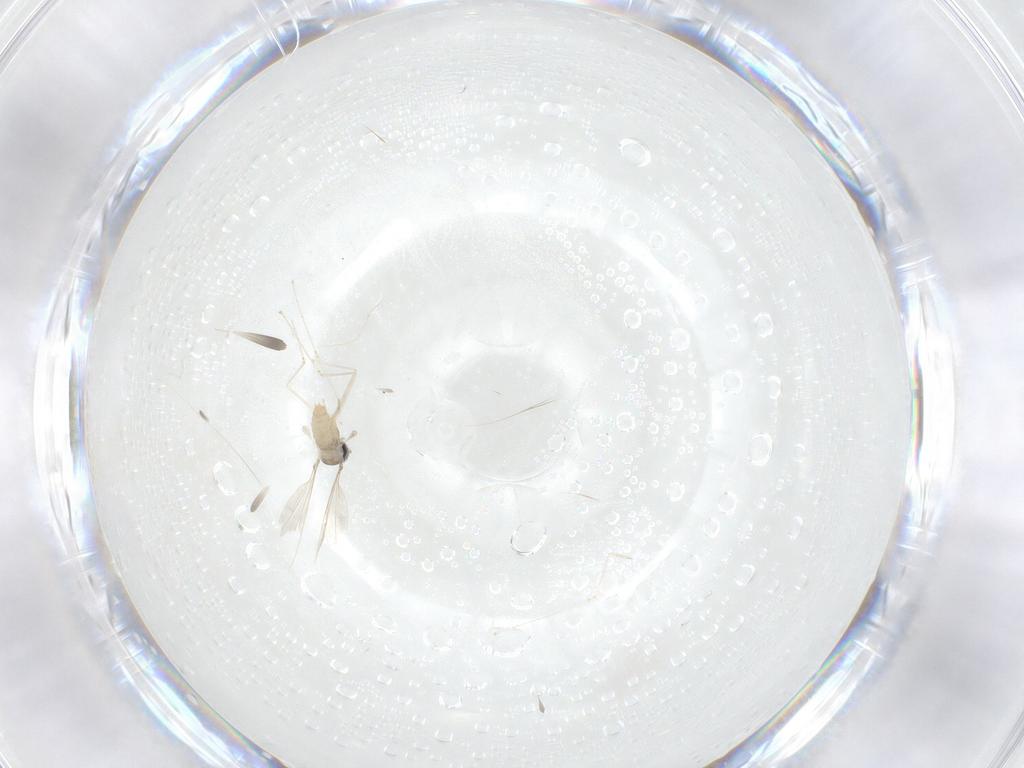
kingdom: Animalia
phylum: Arthropoda
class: Insecta
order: Diptera
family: Cecidomyiidae
